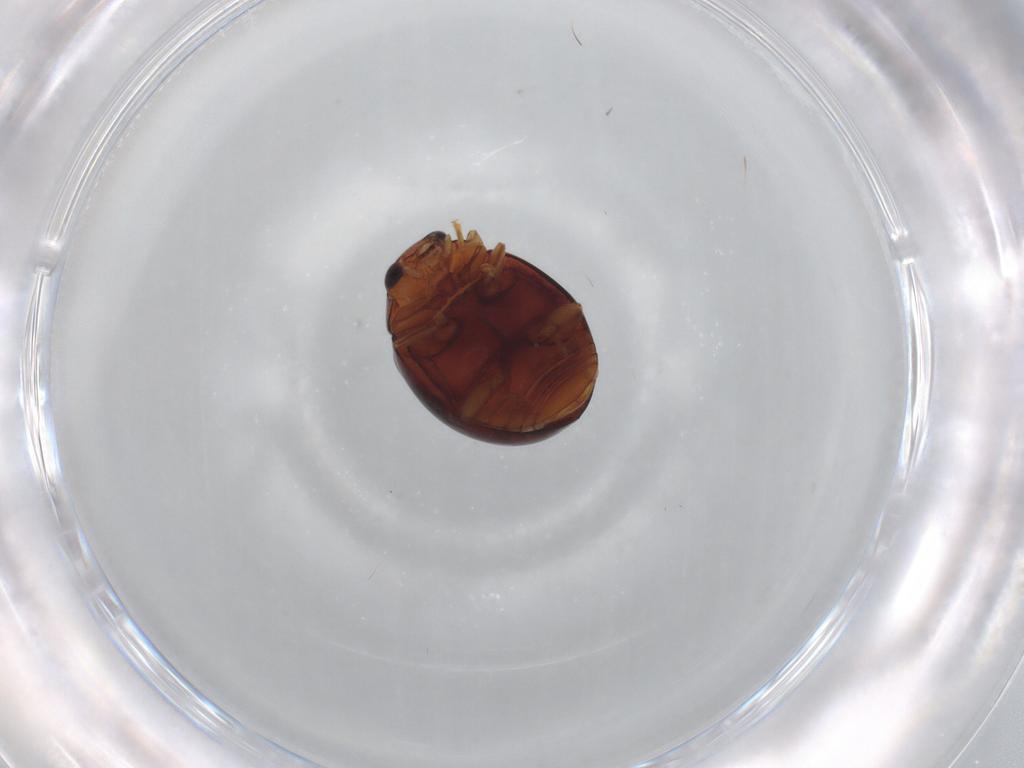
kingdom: Animalia
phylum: Arthropoda
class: Insecta
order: Coleoptera
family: Coccinellidae
